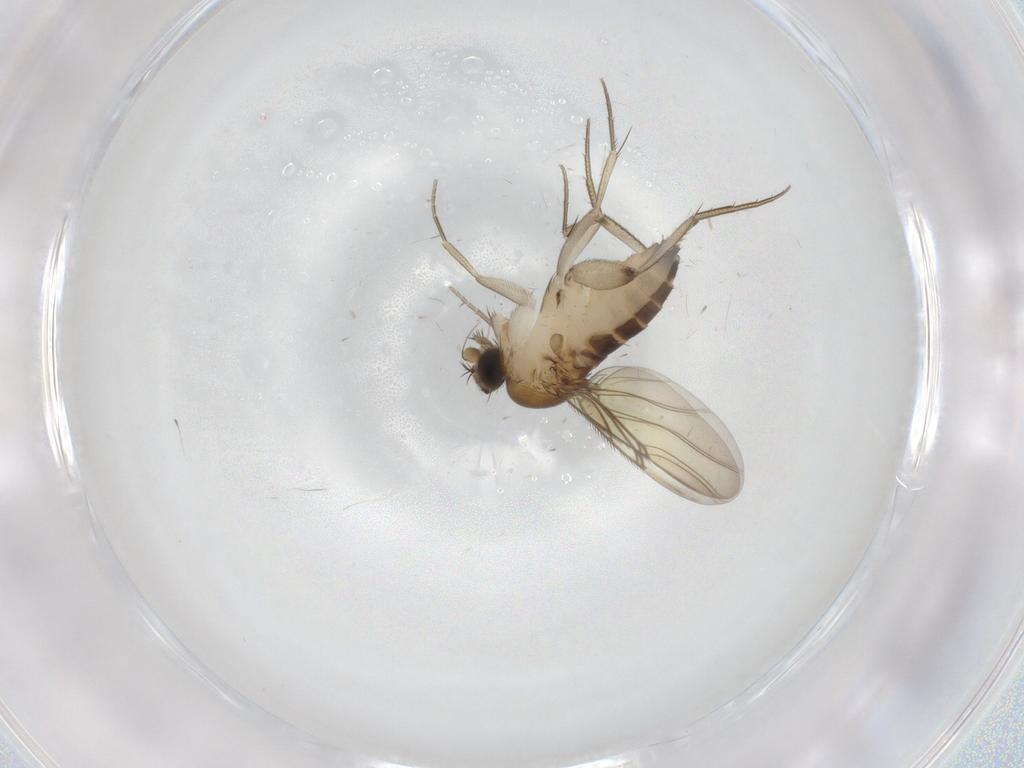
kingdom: Animalia
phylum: Arthropoda
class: Insecta
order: Diptera
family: Phoridae
